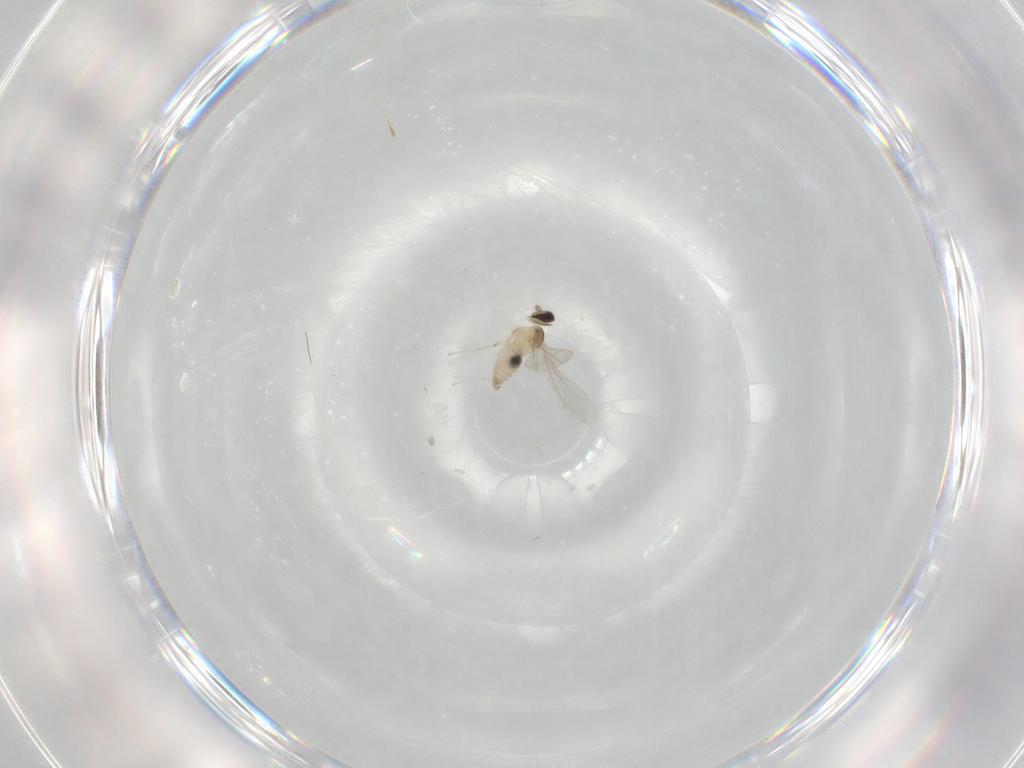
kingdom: Animalia
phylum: Arthropoda
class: Insecta
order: Diptera
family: Cecidomyiidae
